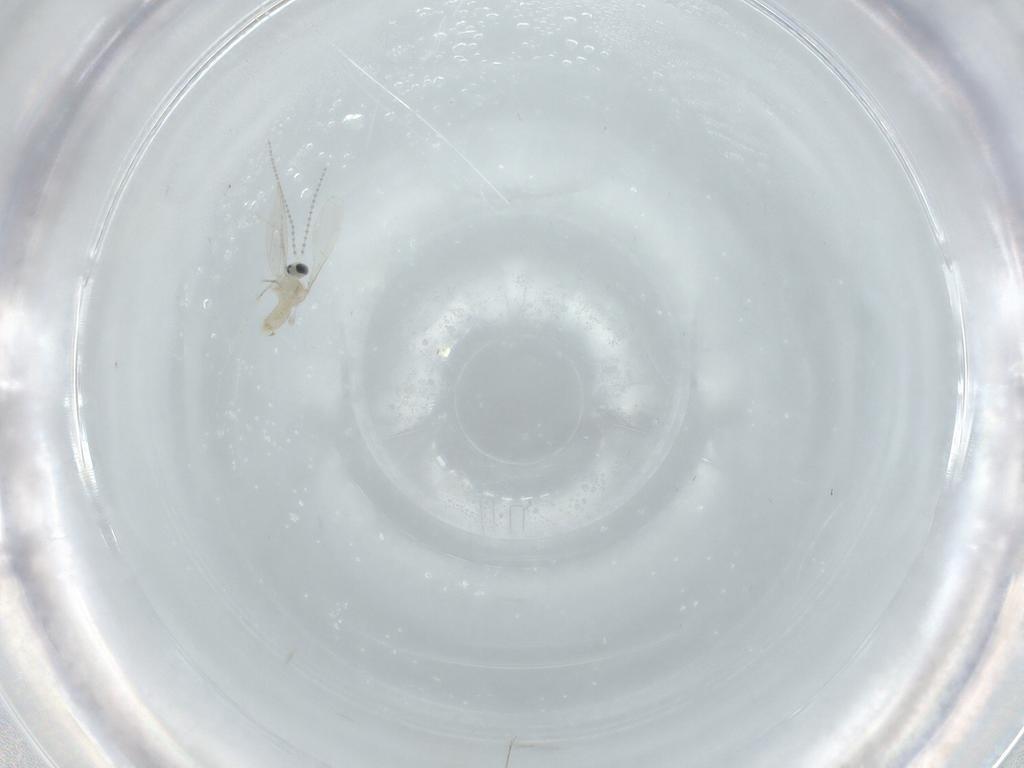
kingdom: Animalia
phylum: Arthropoda
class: Insecta
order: Diptera
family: Cecidomyiidae
